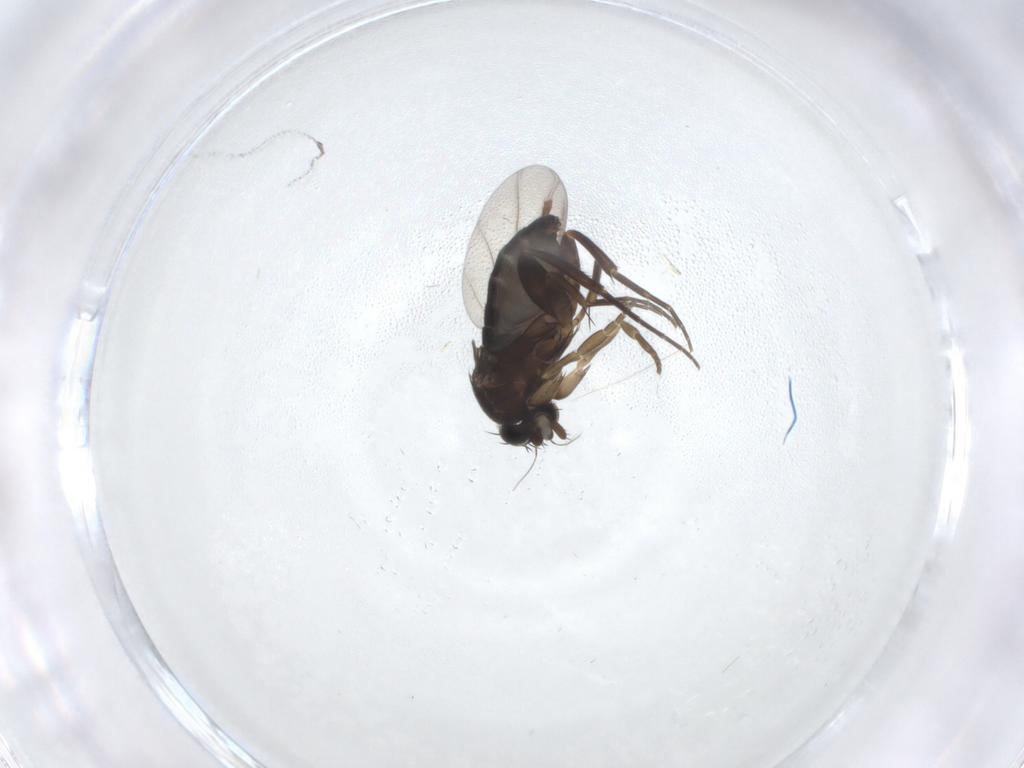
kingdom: Animalia
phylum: Arthropoda
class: Insecta
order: Diptera
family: Phoridae
